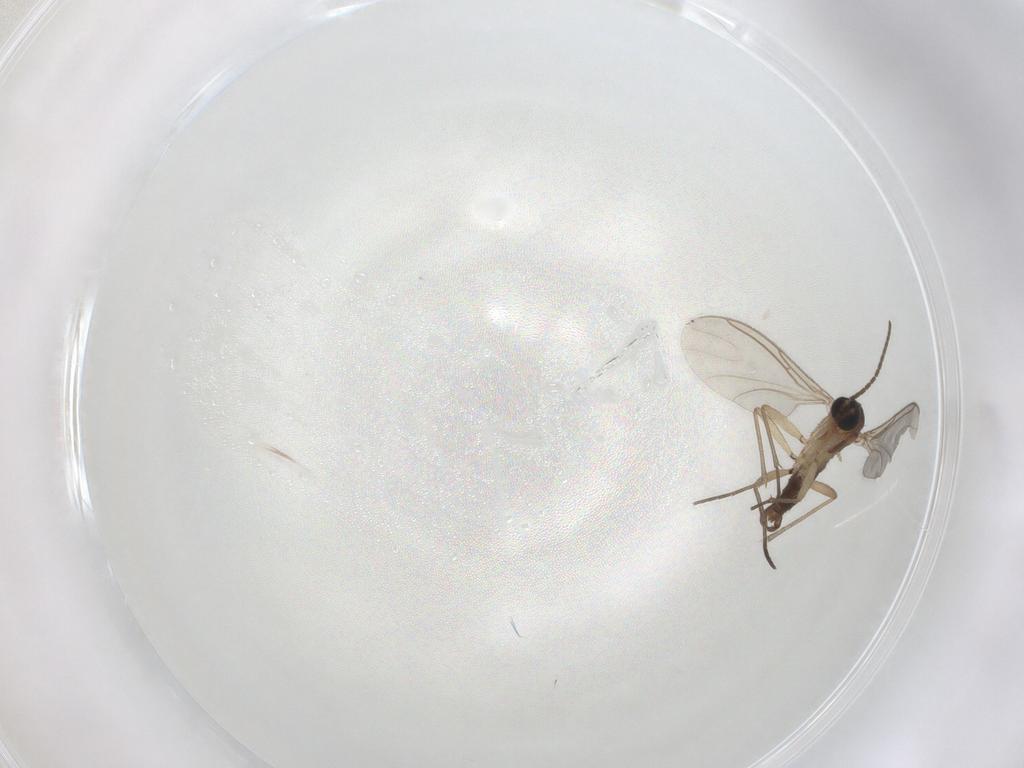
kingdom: Animalia
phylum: Arthropoda
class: Insecta
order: Diptera
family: Sciaridae
